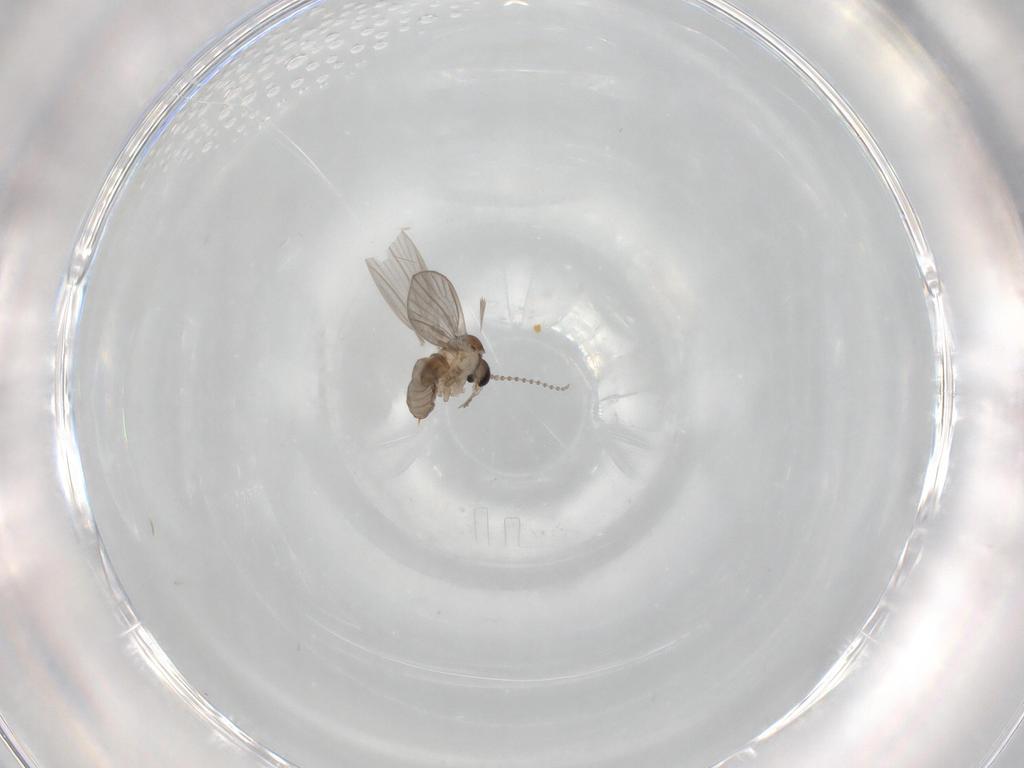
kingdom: Animalia
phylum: Arthropoda
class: Insecta
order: Diptera
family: Psychodidae
